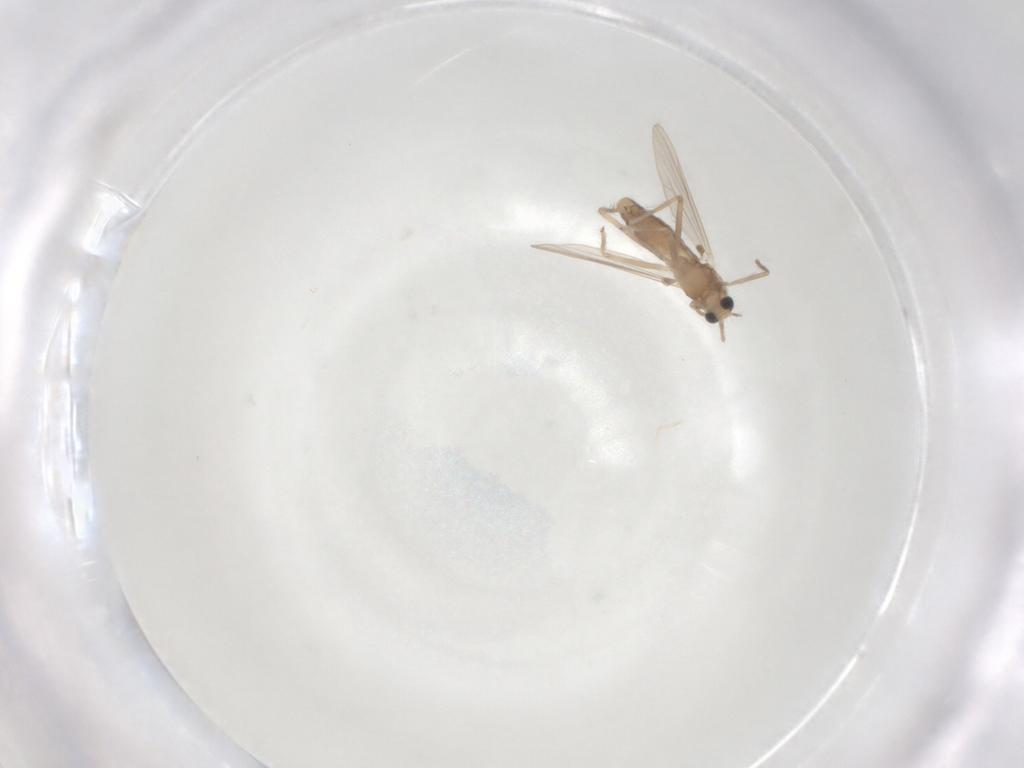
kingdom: Animalia
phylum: Arthropoda
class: Insecta
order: Diptera
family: Chironomidae
